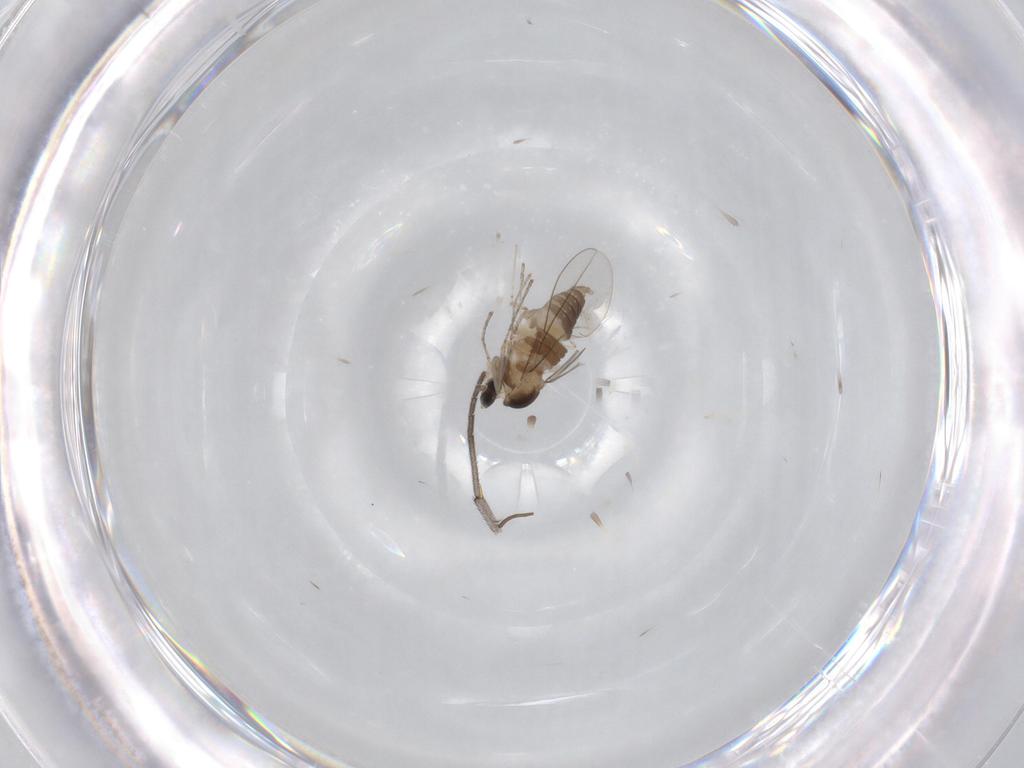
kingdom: Animalia
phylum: Arthropoda
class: Insecta
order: Diptera
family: Cecidomyiidae
